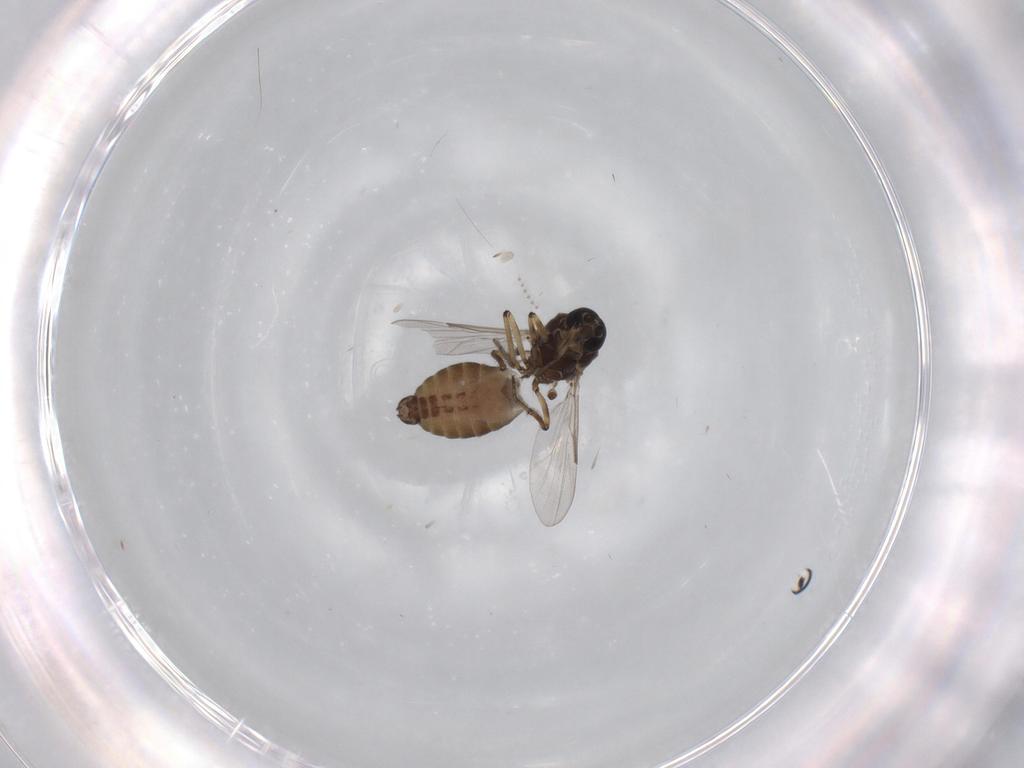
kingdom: Animalia
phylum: Arthropoda
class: Insecta
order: Diptera
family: Ceratopogonidae
